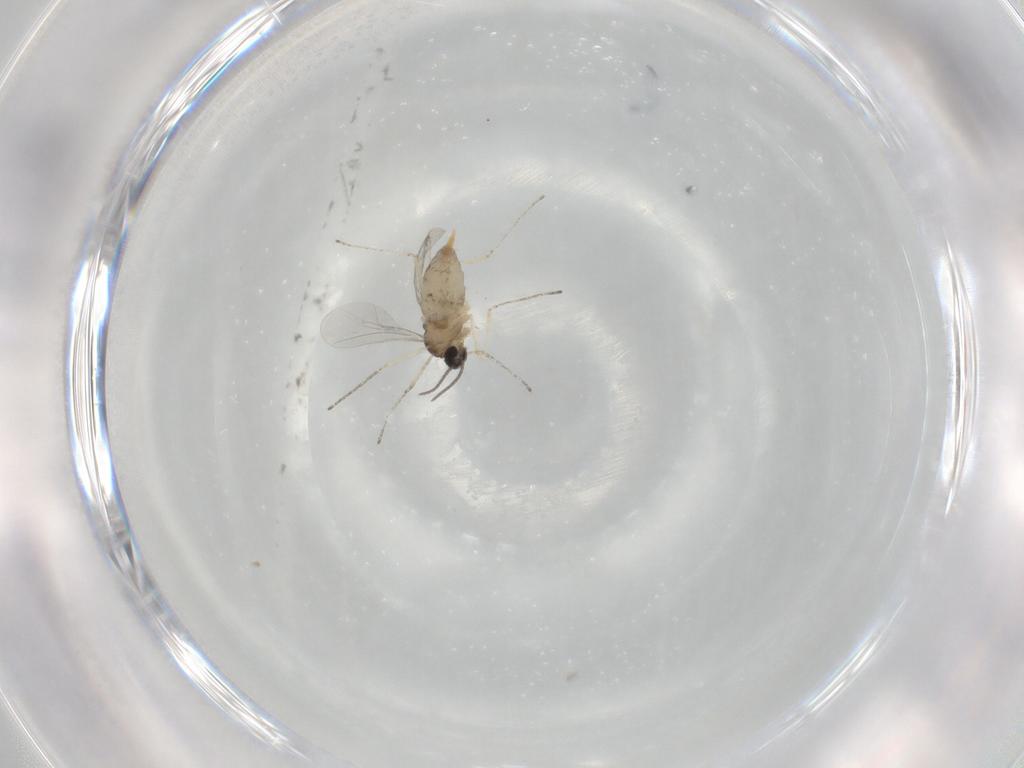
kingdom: Animalia
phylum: Arthropoda
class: Insecta
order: Diptera
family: Cecidomyiidae
